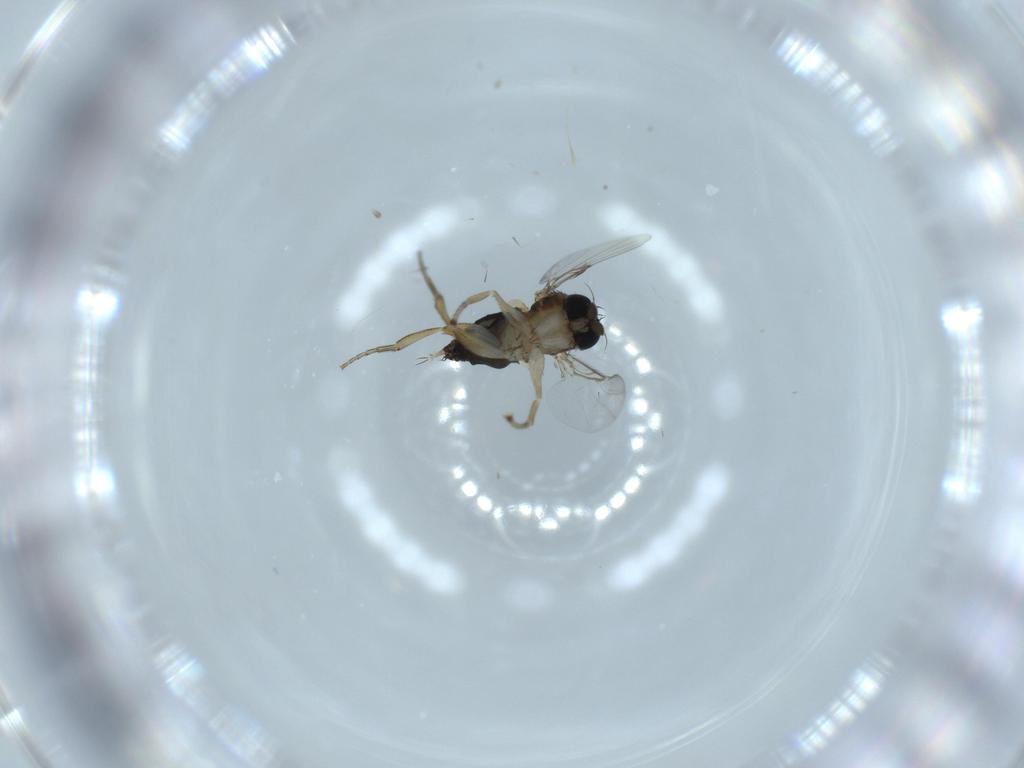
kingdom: Animalia
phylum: Arthropoda
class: Insecta
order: Diptera
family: Phoridae
